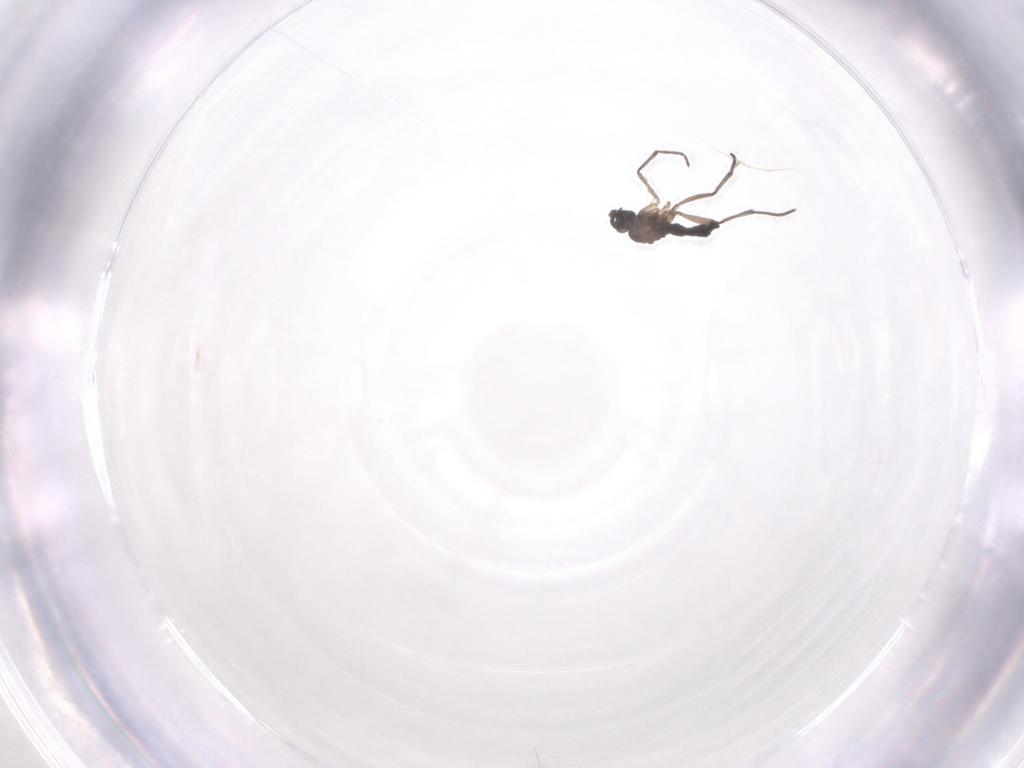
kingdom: Animalia
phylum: Arthropoda
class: Insecta
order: Diptera
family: Sciaridae
